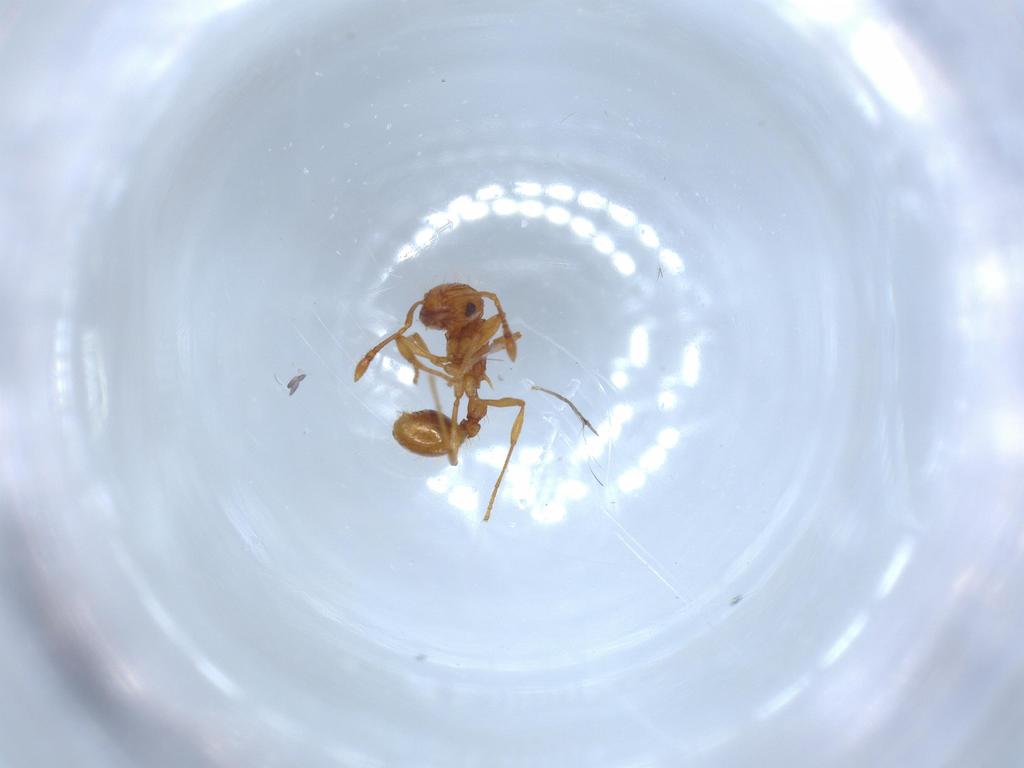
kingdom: Animalia
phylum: Arthropoda
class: Insecta
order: Hymenoptera
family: Formicidae
